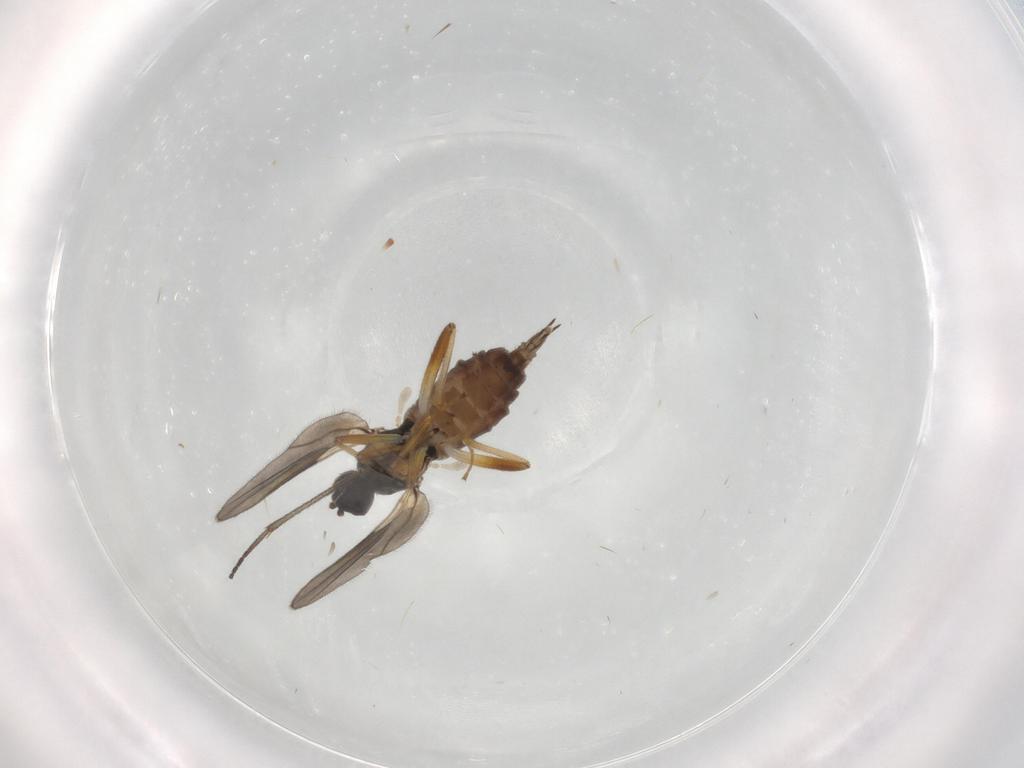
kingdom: Animalia
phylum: Arthropoda
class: Insecta
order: Diptera
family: Hybotidae
